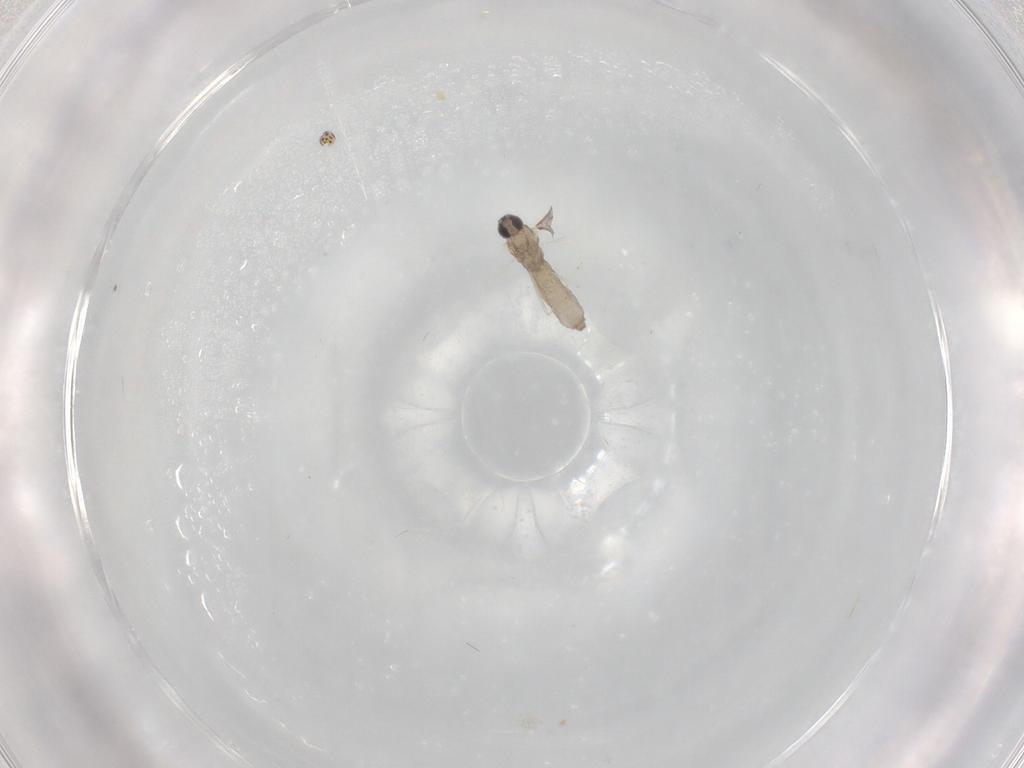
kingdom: Animalia
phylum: Arthropoda
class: Insecta
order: Diptera
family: Cecidomyiidae
